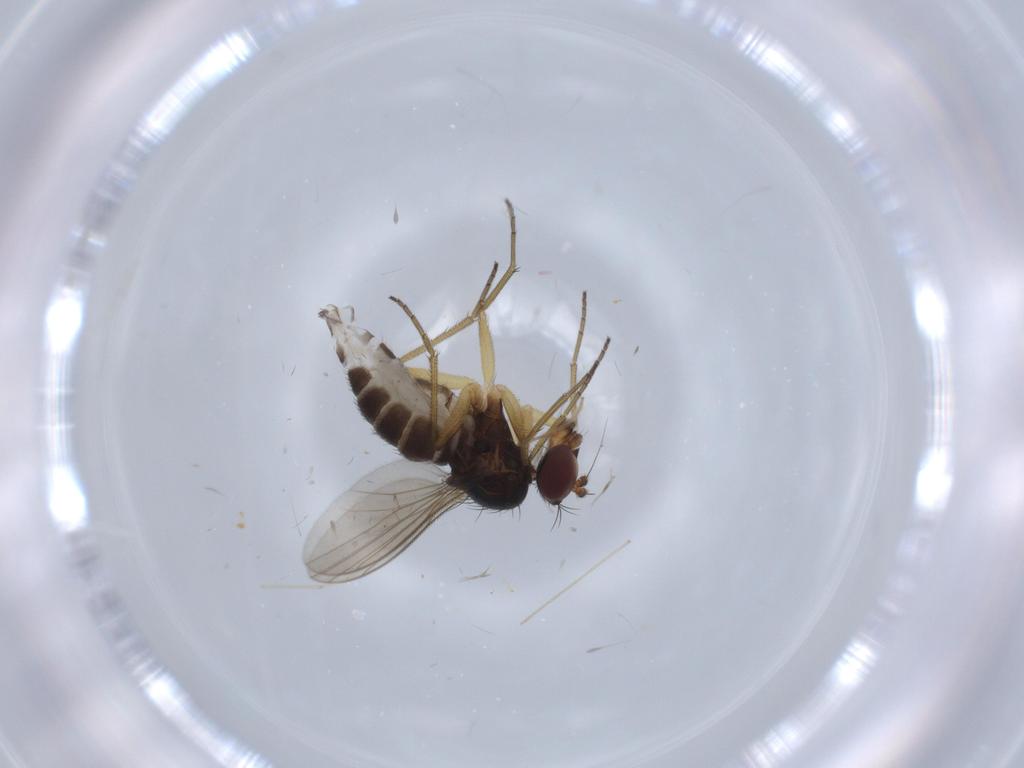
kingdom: Animalia
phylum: Arthropoda
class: Insecta
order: Diptera
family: Dolichopodidae
